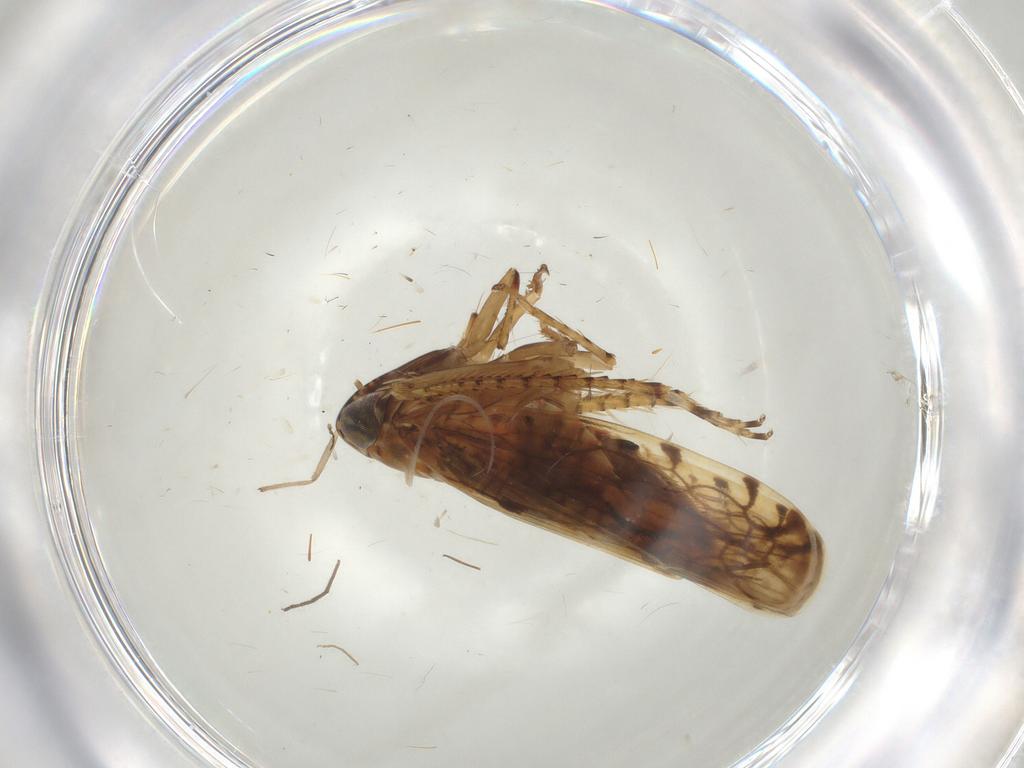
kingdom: Animalia
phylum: Arthropoda
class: Insecta
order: Hemiptera
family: Cicadellidae
